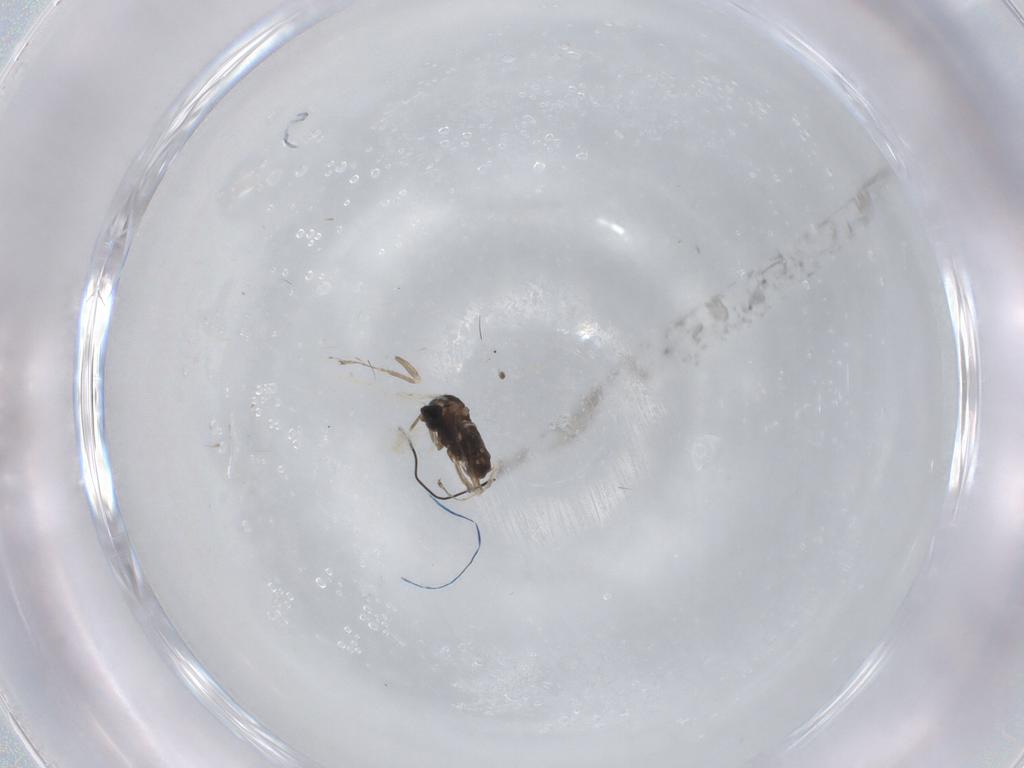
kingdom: Animalia
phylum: Arthropoda
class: Insecta
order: Diptera
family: Cecidomyiidae
